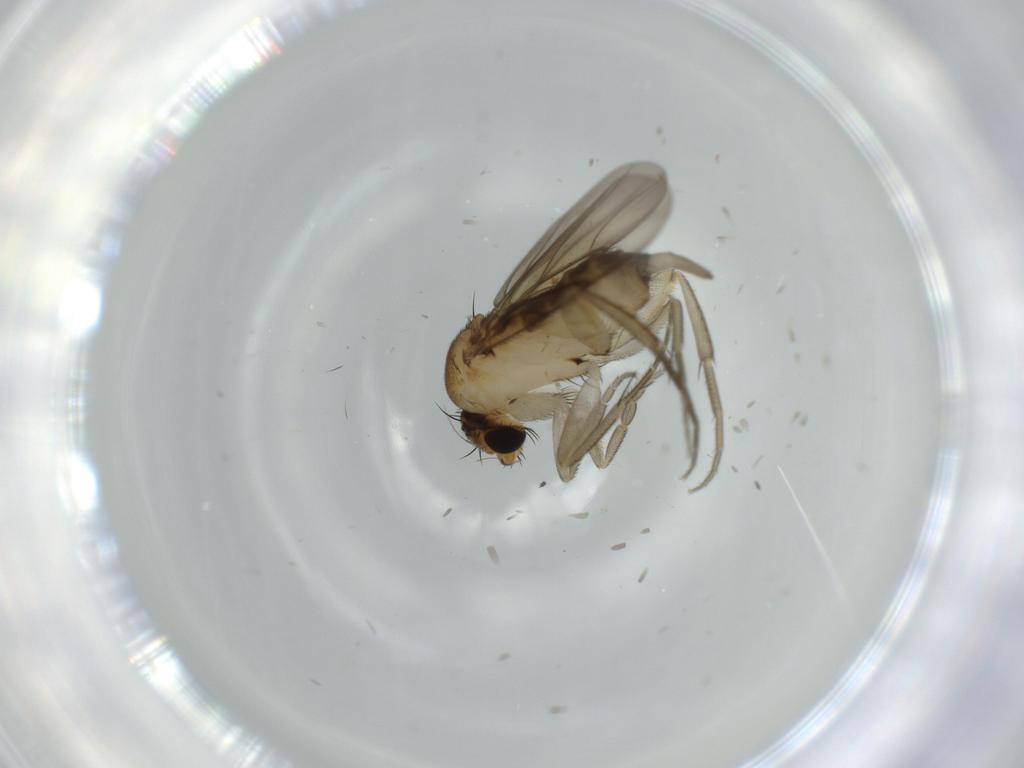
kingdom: Animalia
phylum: Arthropoda
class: Insecta
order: Diptera
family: Phoridae
